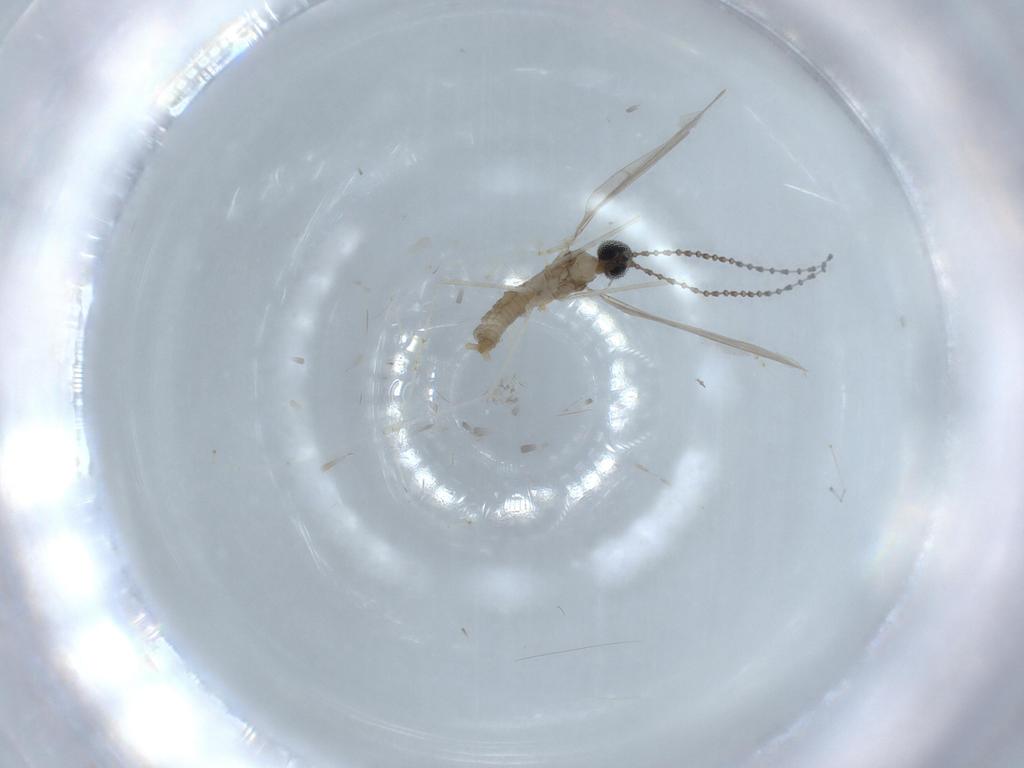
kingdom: Animalia
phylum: Arthropoda
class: Insecta
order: Diptera
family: Cecidomyiidae
